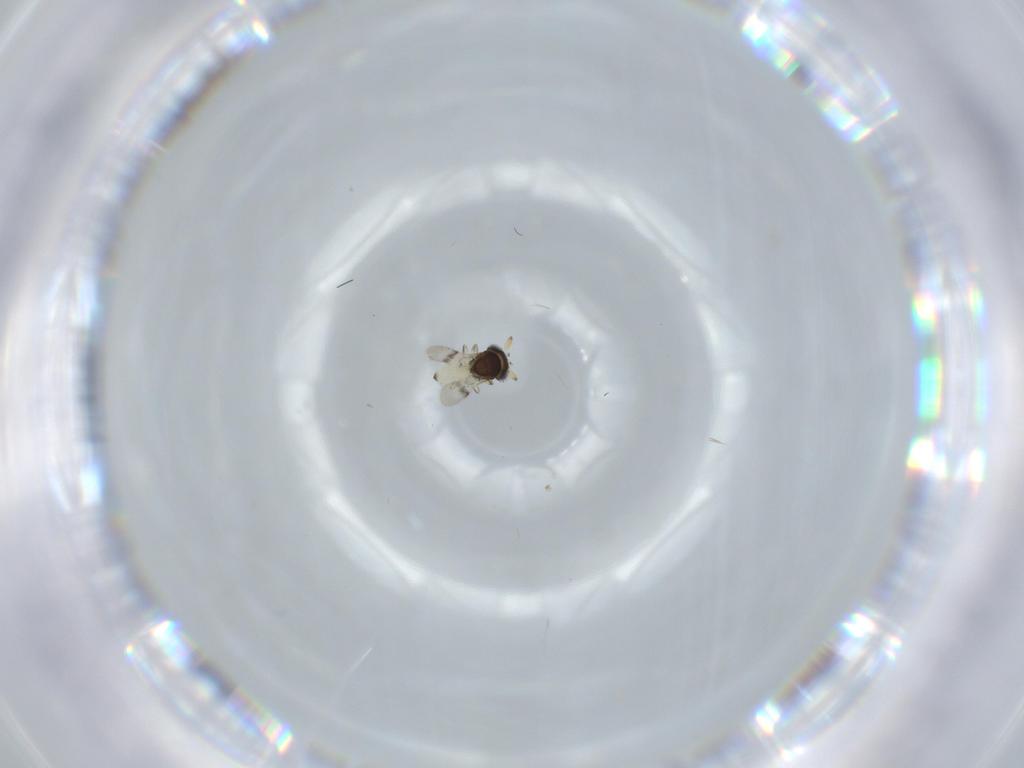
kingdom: Animalia
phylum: Arthropoda
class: Insecta
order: Hymenoptera
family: Scelionidae
